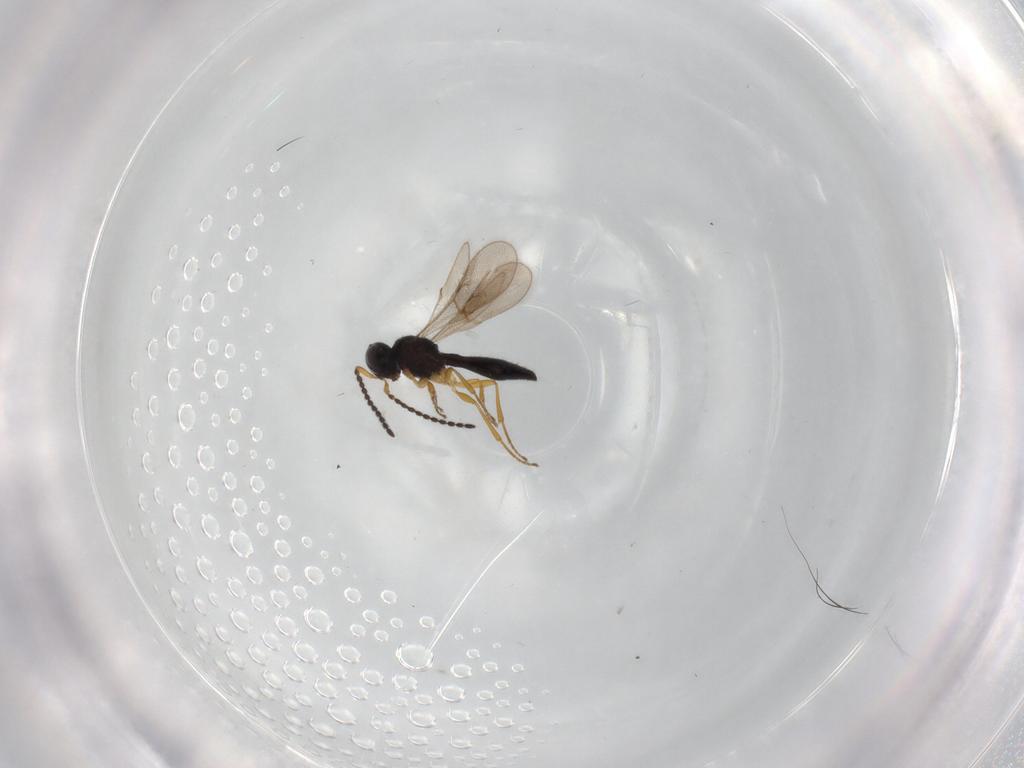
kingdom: Animalia
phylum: Arthropoda
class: Insecta
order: Hymenoptera
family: Scelionidae
